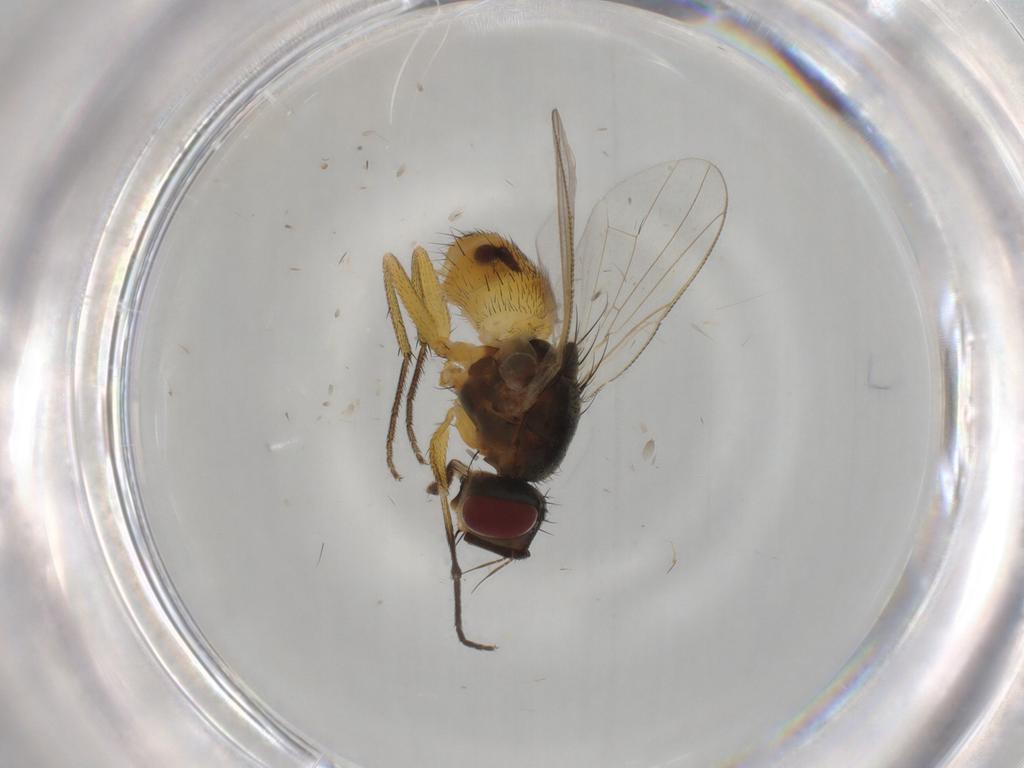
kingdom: Animalia
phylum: Arthropoda
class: Insecta
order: Diptera
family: Muscidae
